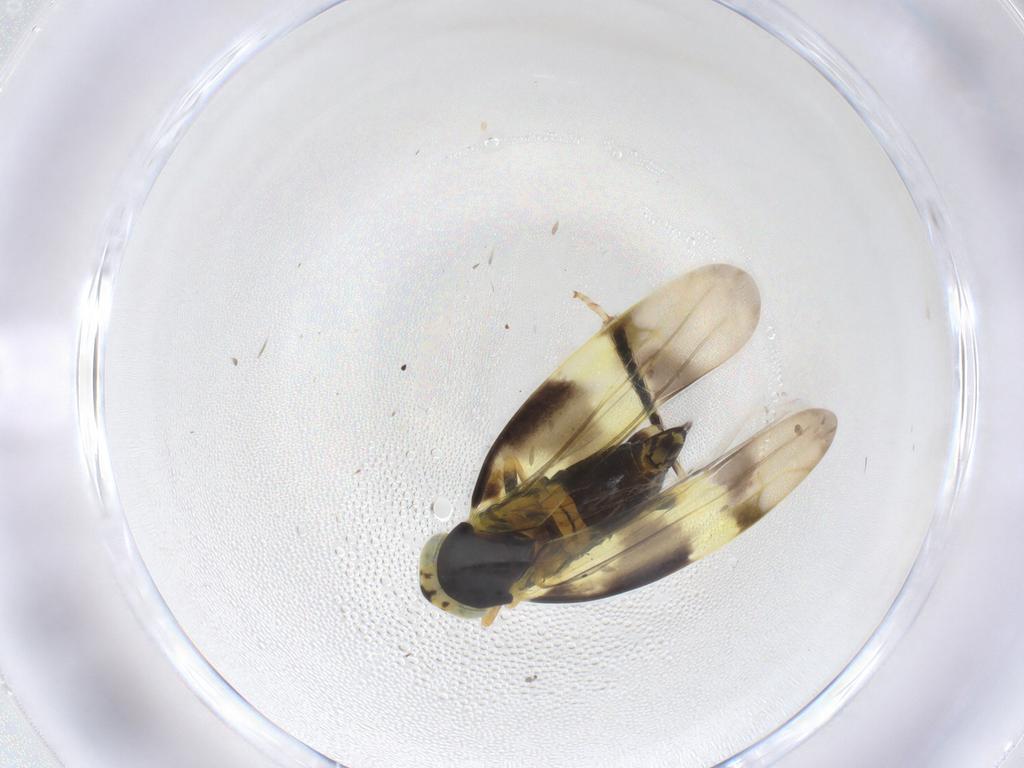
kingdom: Animalia
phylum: Arthropoda
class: Insecta
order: Hemiptera
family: Cicadellidae
